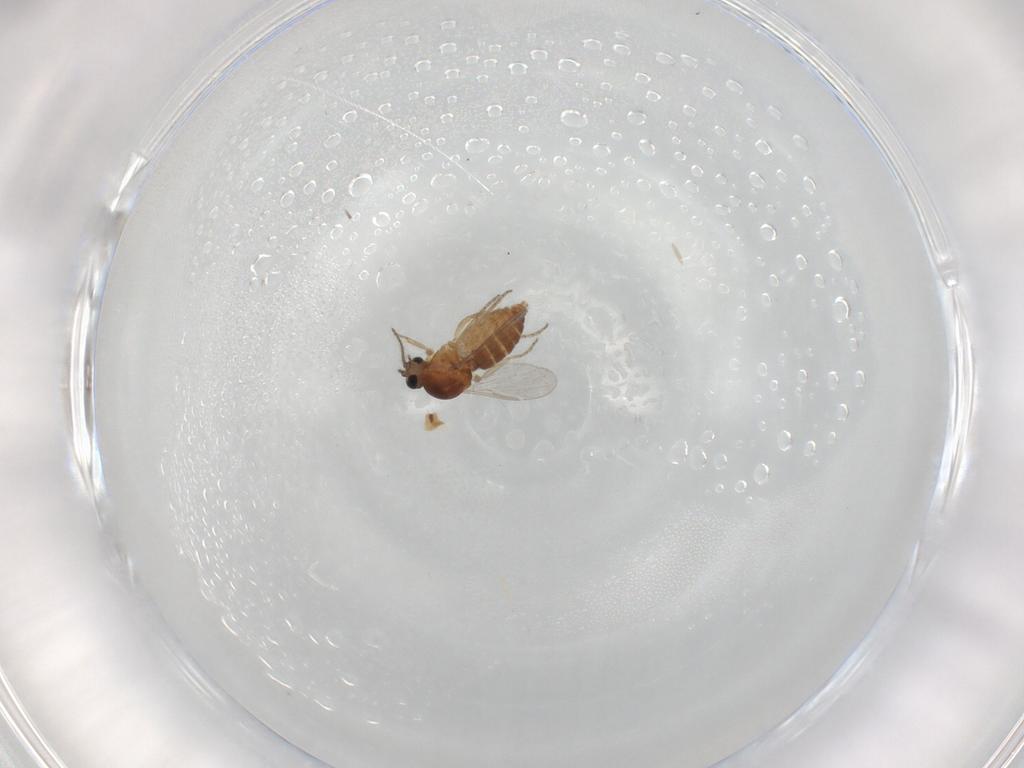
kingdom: Animalia
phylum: Arthropoda
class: Insecta
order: Diptera
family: Ceratopogonidae
